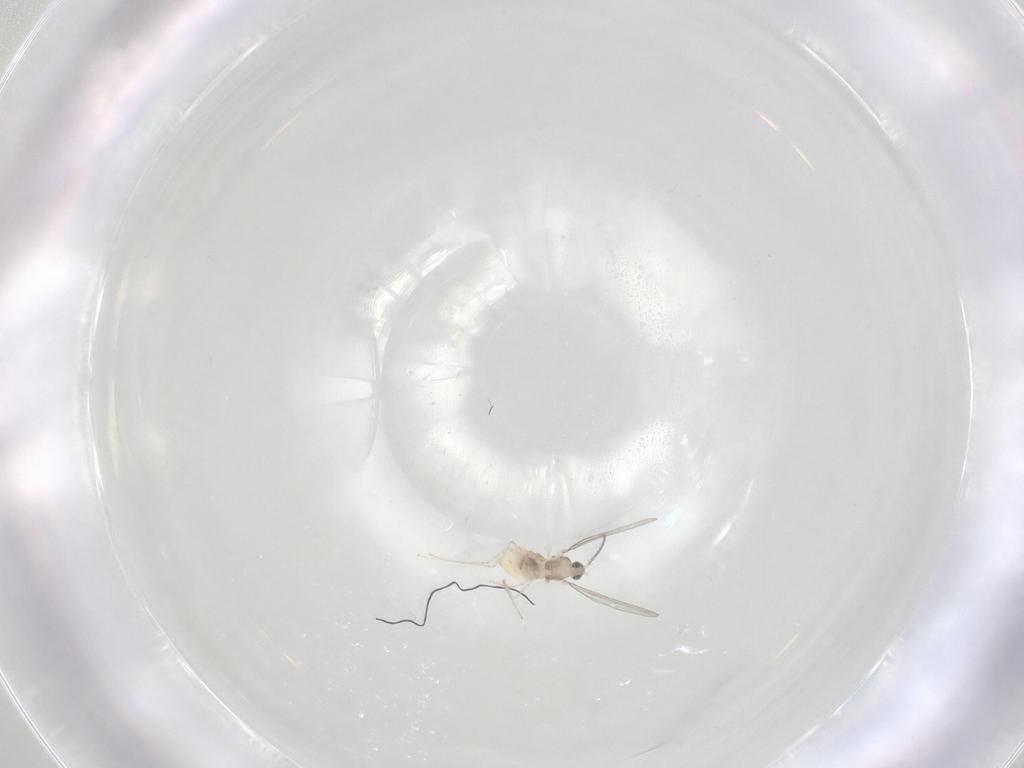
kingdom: Animalia
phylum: Arthropoda
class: Insecta
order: Diptera
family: Cecidomyiidae
